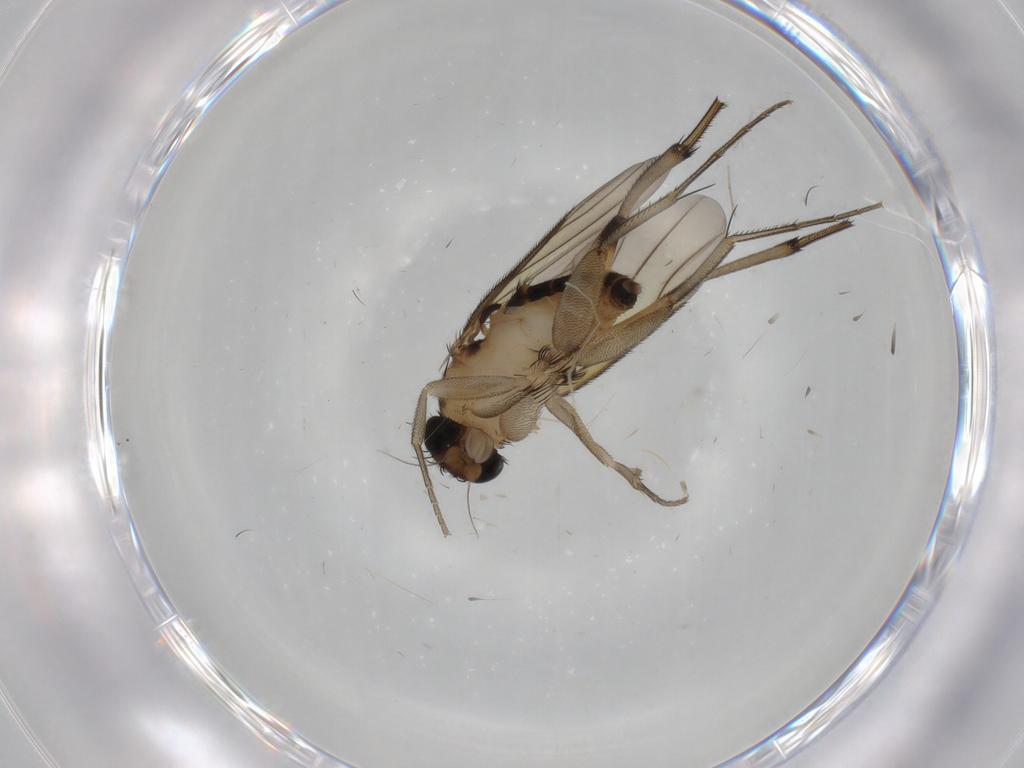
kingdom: Animalia
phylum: Arthropoda
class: Insecta
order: Diptera
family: Phoridae
